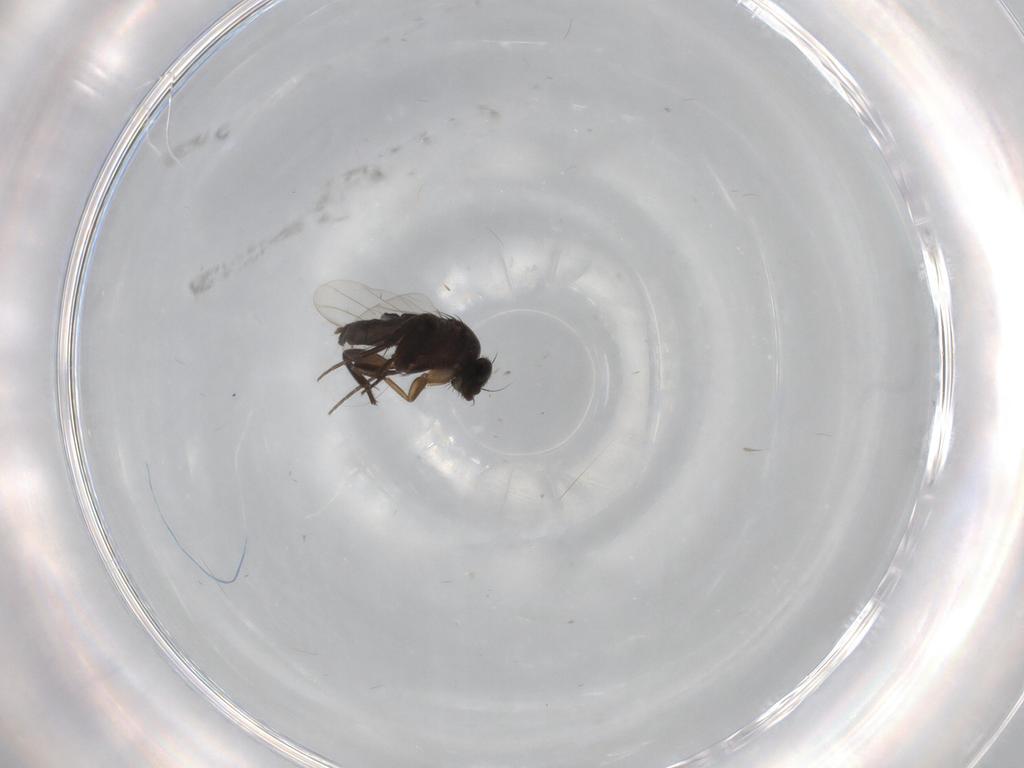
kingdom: Animalia
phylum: Arthropoda
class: Insecta
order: Diptera
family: Phoridae
